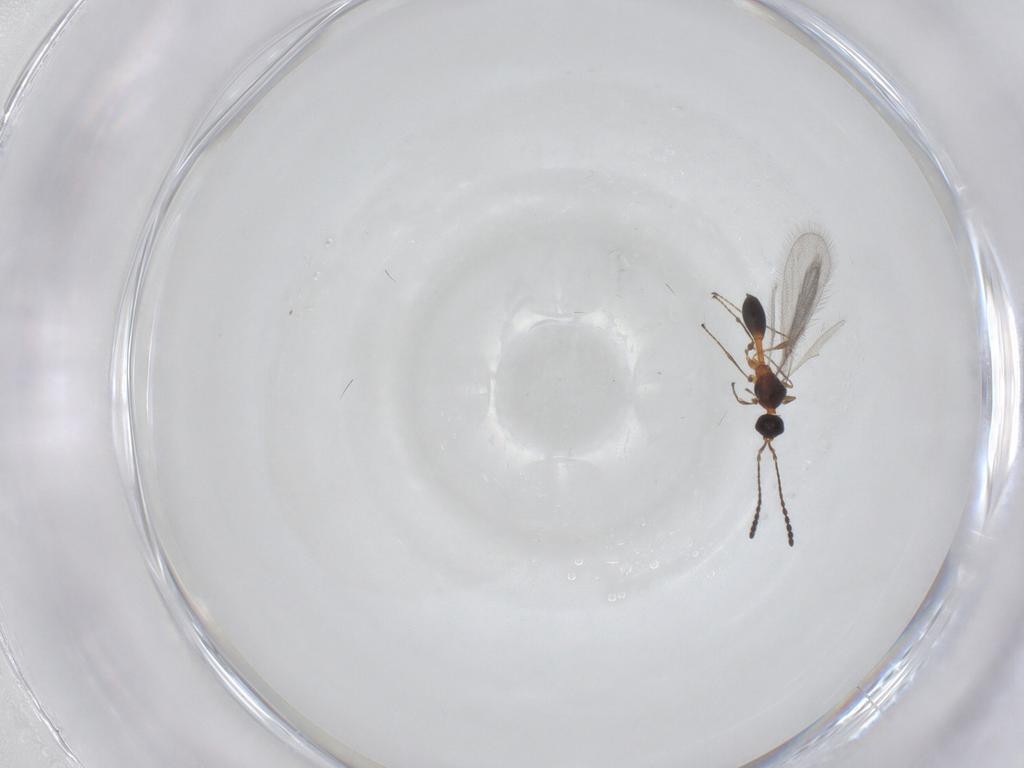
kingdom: Animalia
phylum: Arthropoda
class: Insecta
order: Hymenoptera
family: Diapriidae
